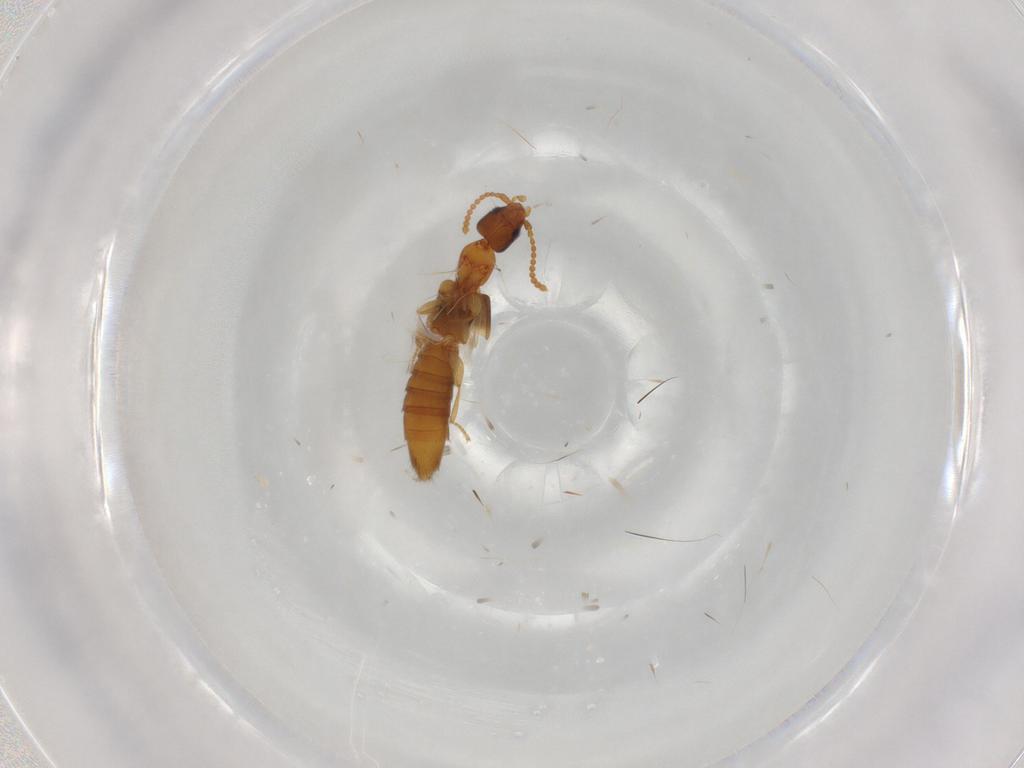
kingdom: Animalia
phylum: Arthropoda
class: Insecta
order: Coleoptera
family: Staphylinidae
